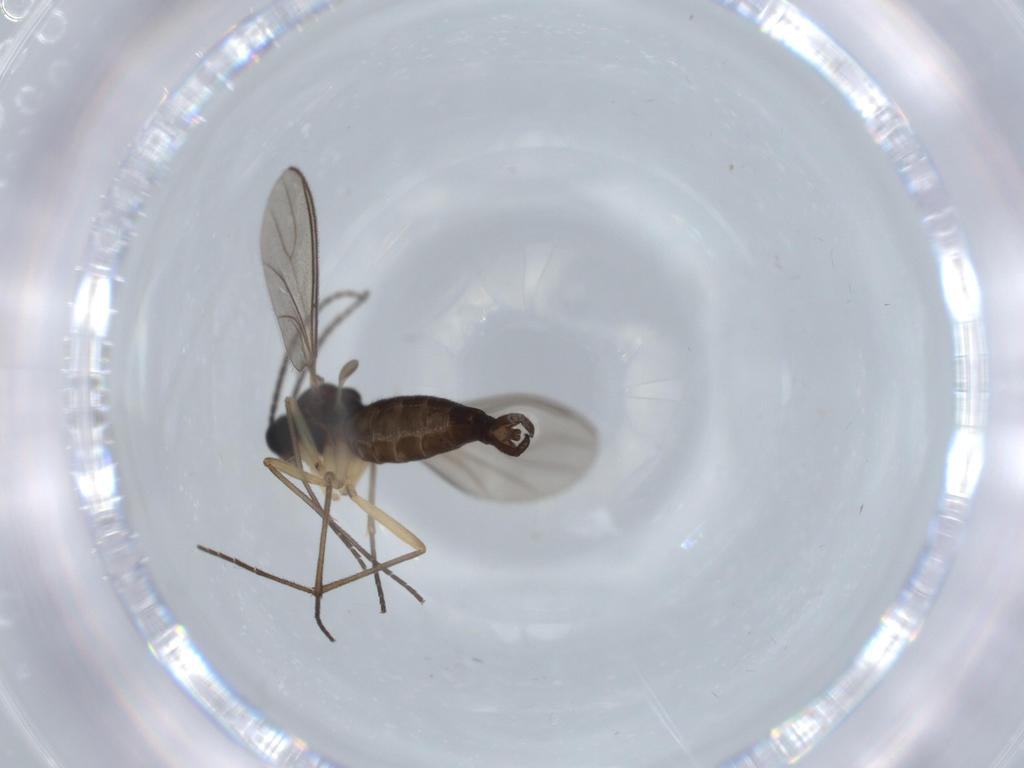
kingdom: Animalia
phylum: Arthropoda
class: Insecta
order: Diptera
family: Sciaridae
